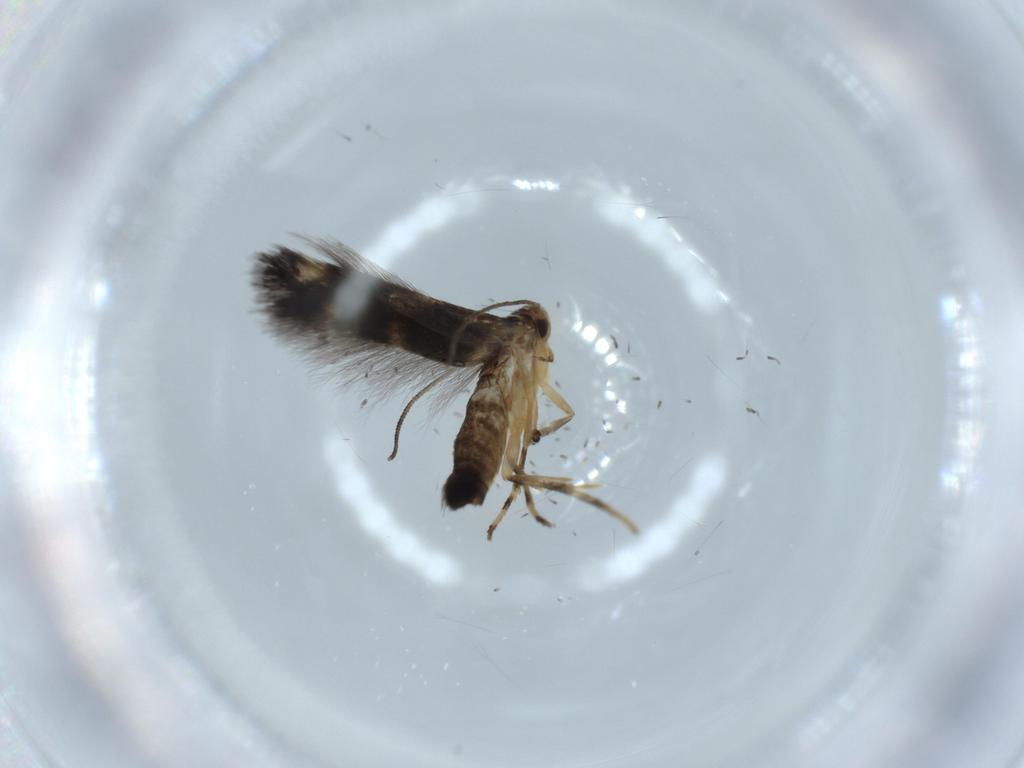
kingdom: Animalia
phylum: Arthropoda
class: Insecta
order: Lepidoptera
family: Cosmopterigidae
